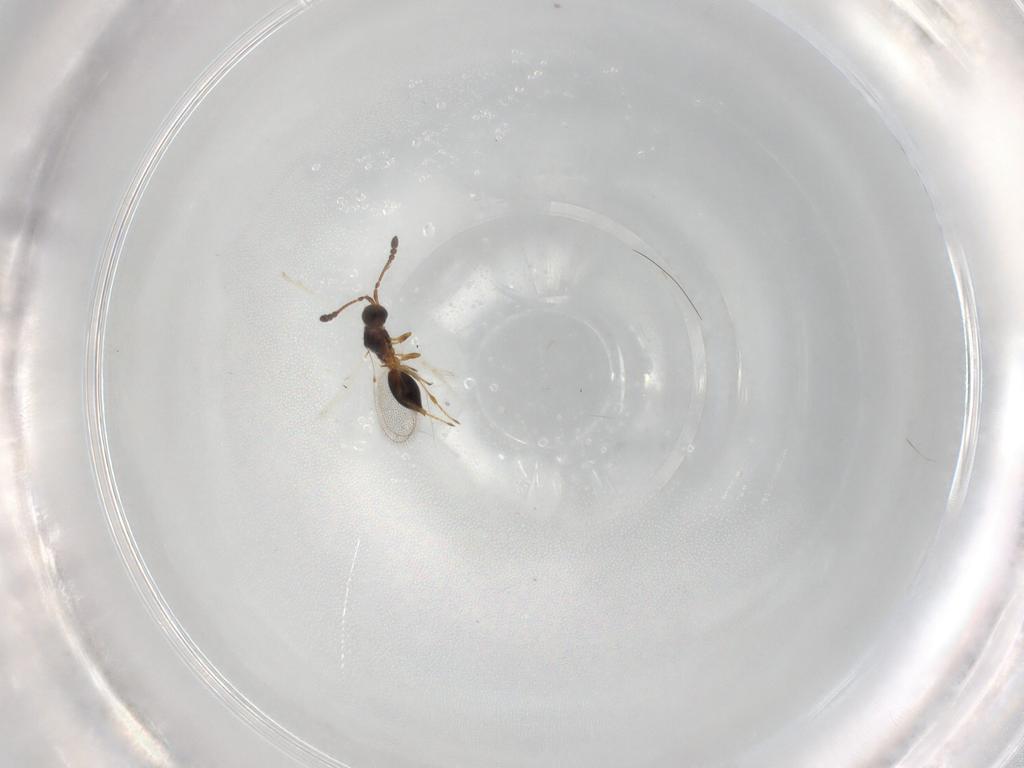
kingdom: Animalia
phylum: Arthropoda
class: Insecta
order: Hymenoptera
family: Diapriidae
